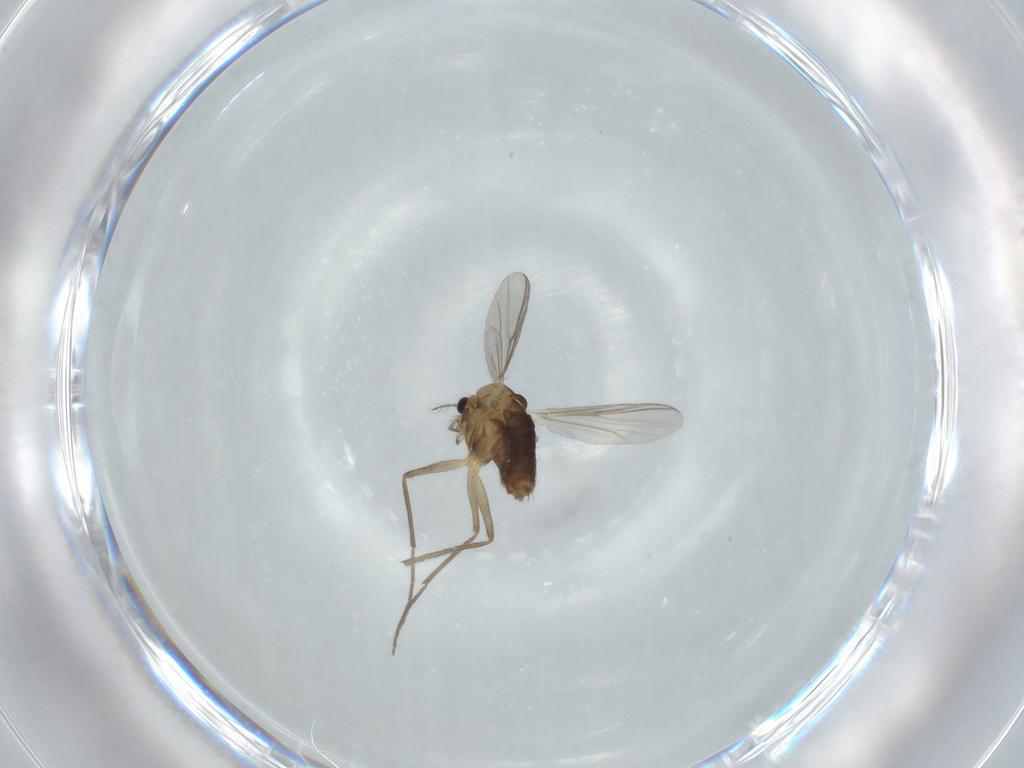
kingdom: Animalia
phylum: Arthropoda
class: Insecta
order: Diptera
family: Chironomidae
